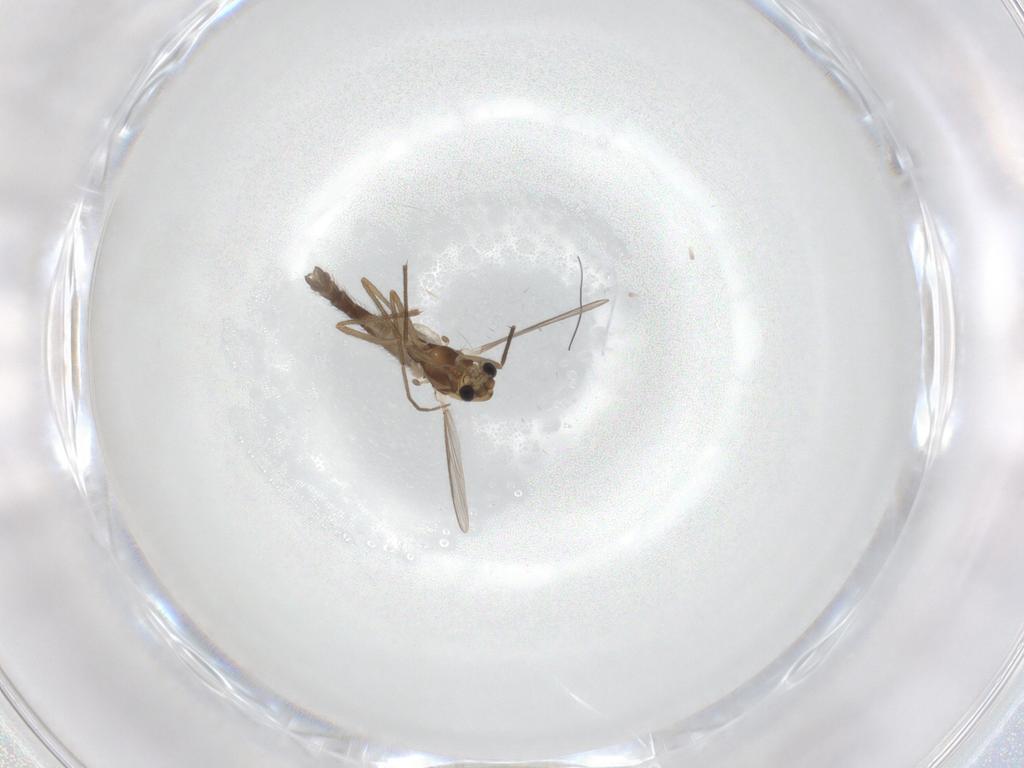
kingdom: Animalia
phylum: Arthropoda
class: Insecta
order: Diptera
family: Chironomidae
